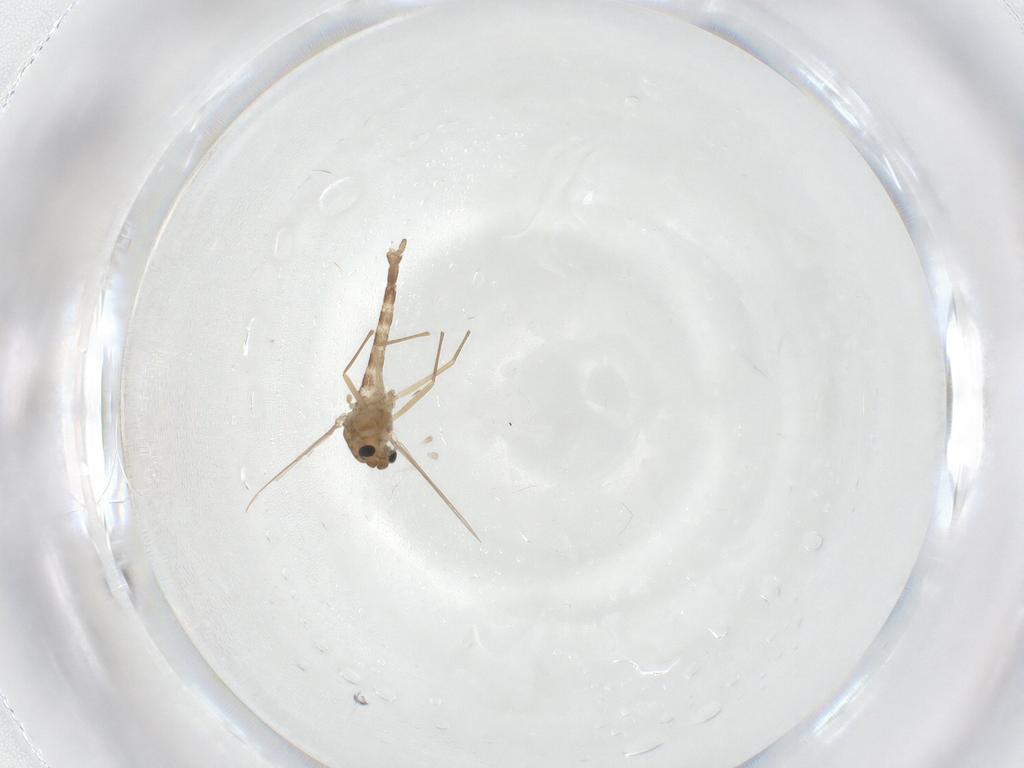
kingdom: Animalia
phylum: Arthropoda
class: Insecta
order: Diptera
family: Chironomidae
